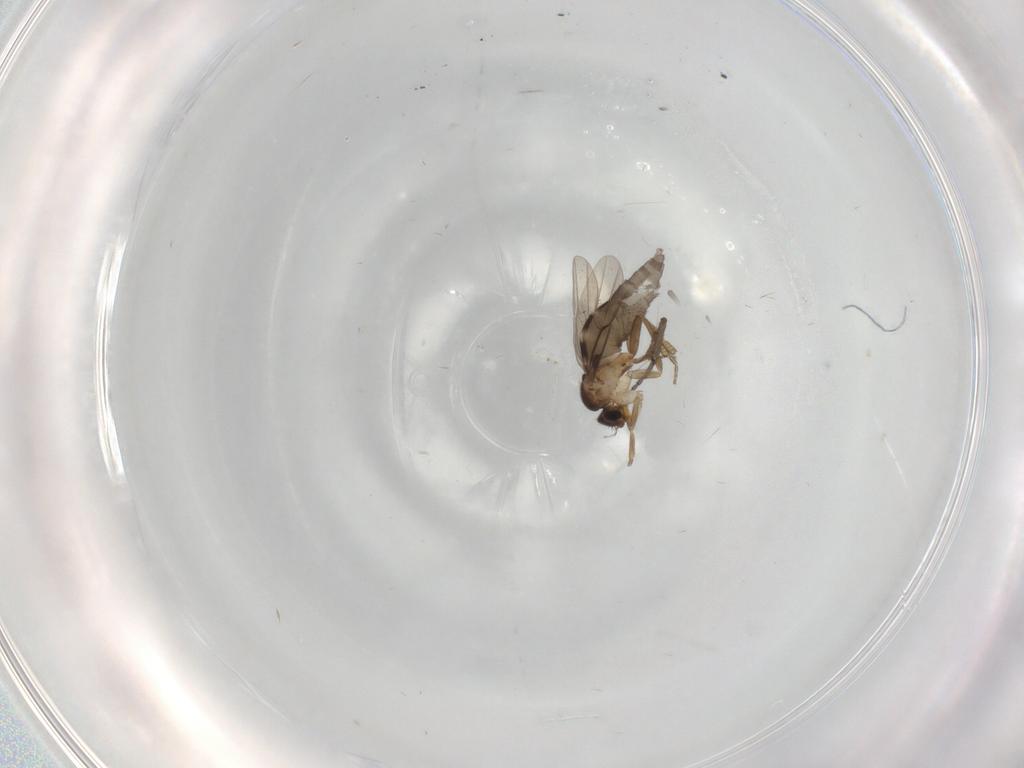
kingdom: Animalia
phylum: Arthropoda
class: Insecta
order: Diptera
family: Sciaridae
